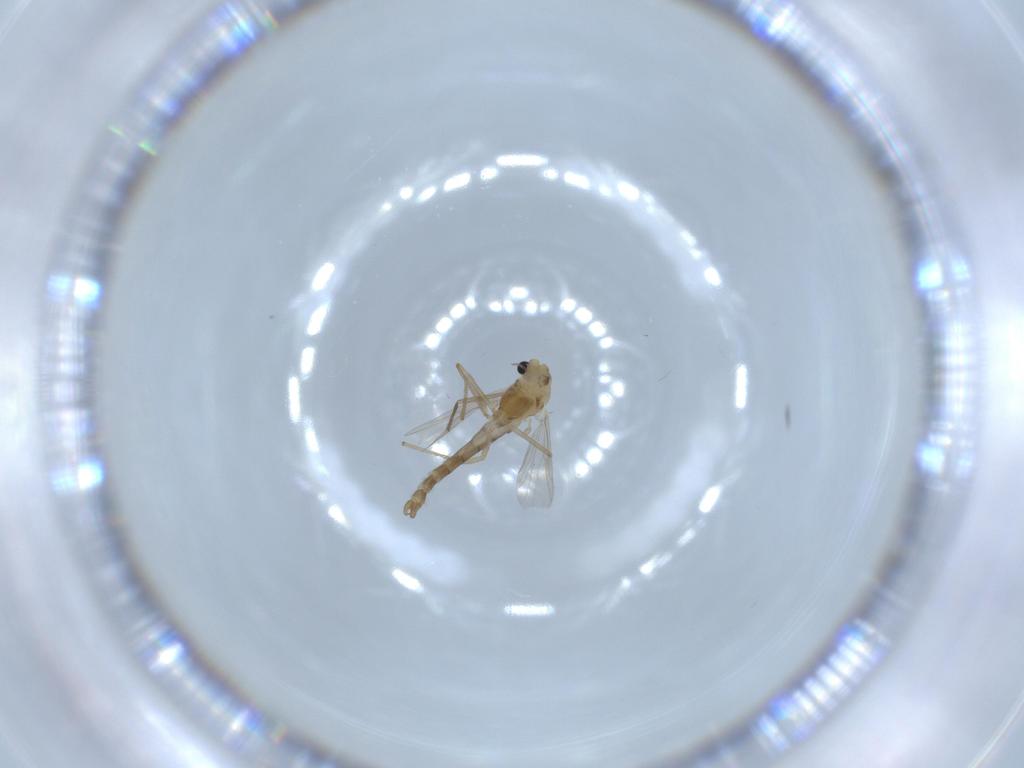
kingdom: Animalia
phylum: Arthropoda
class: Insecta
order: Diptera
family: Chironomidae
